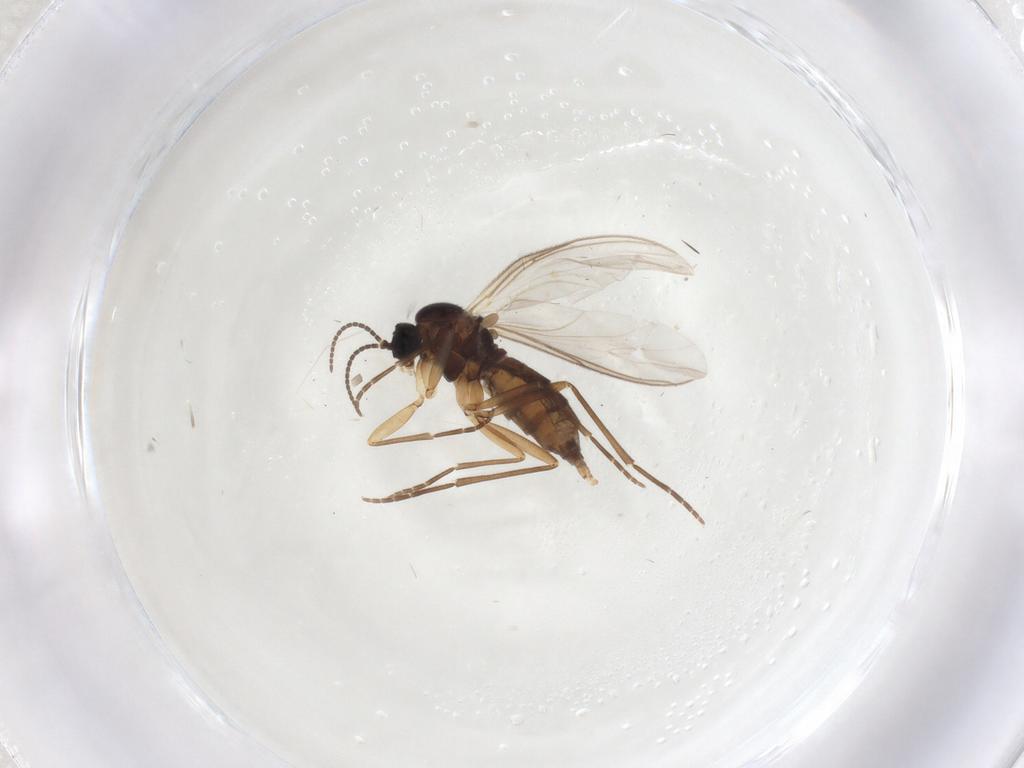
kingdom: Animalia
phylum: Arthropoda
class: Insecta
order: Diptera
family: Sciaridae
